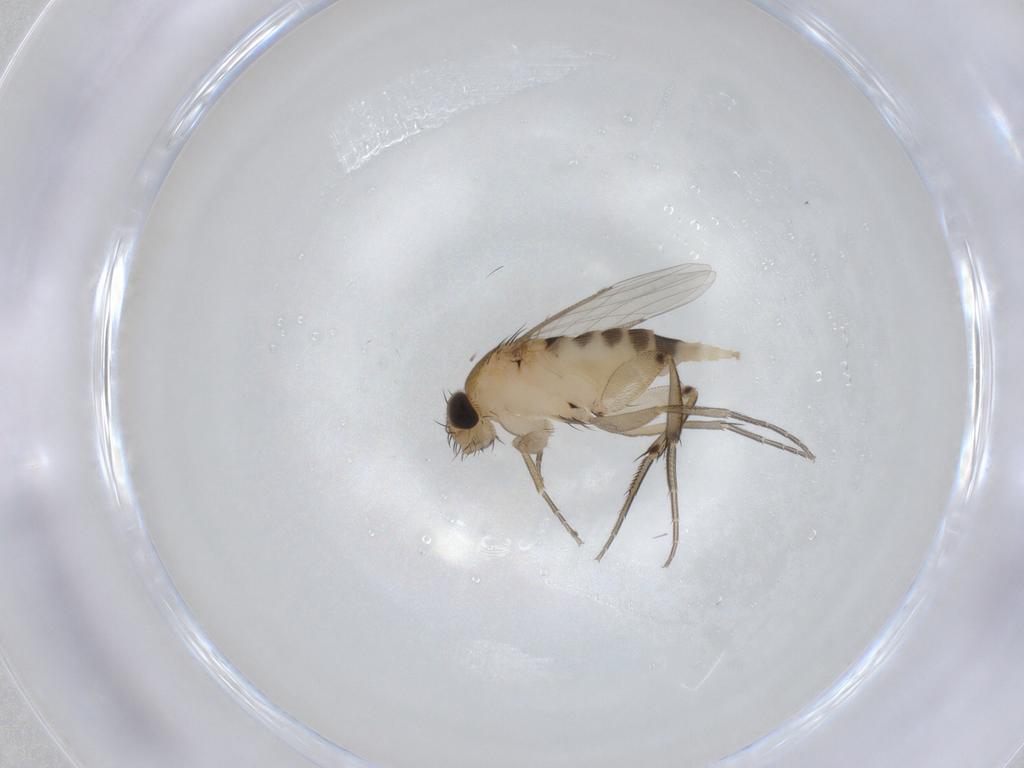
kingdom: Animalia
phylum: Arthropoda
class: Insecta
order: Diptera
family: Phoridae
